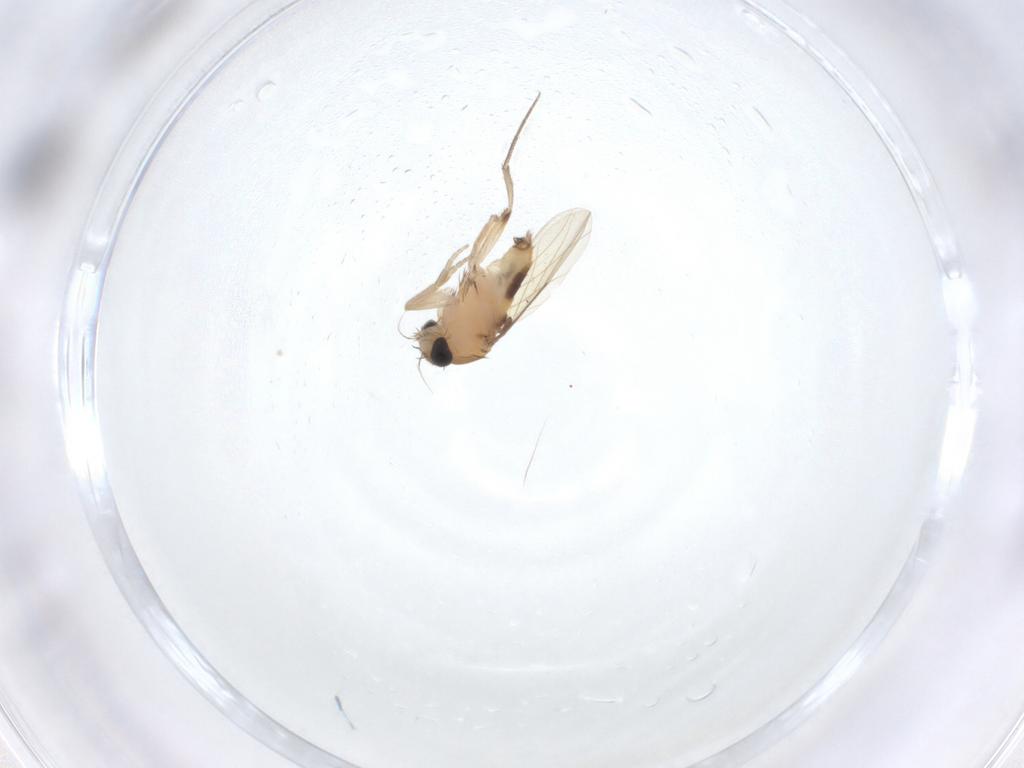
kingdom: Animalia
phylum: Arthropoda
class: Insecta
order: Diptera
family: Phoridae
